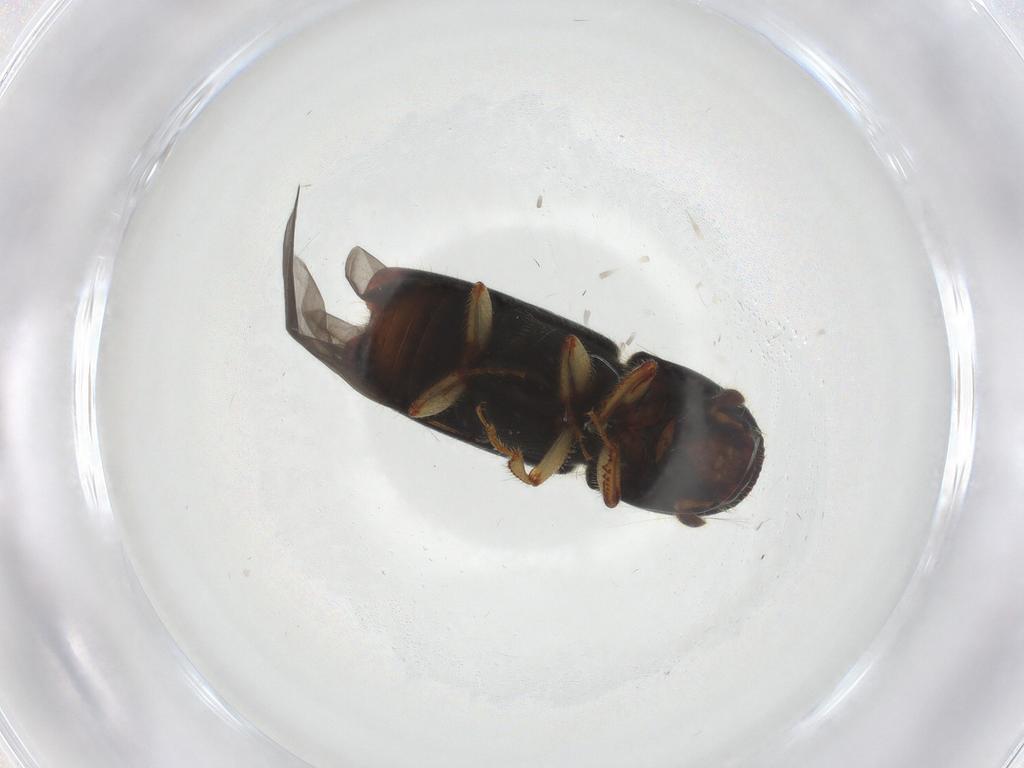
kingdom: Animalia
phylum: Arthropoda
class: Insecta
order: Coleoptera
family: Curculionidae
